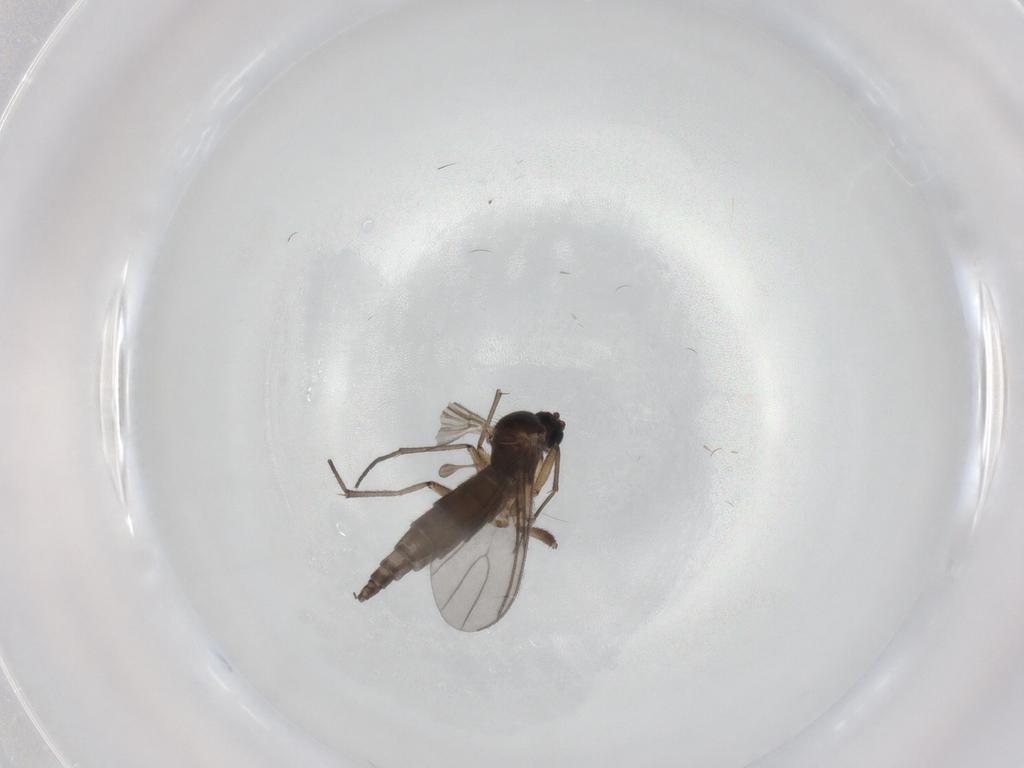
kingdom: Animalia
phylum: Arthropoda
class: Insecta
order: Diptera
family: Sciaridae
